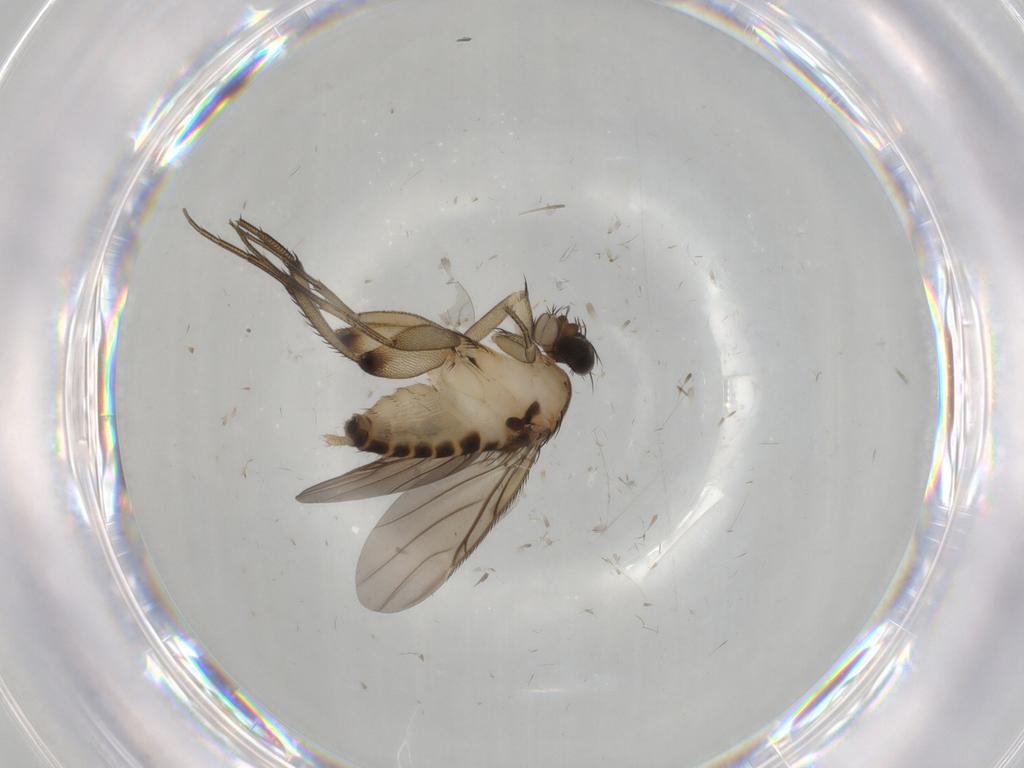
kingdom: Animalia
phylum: Arthropoda
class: Insecta
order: Diptera
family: Phoridae
